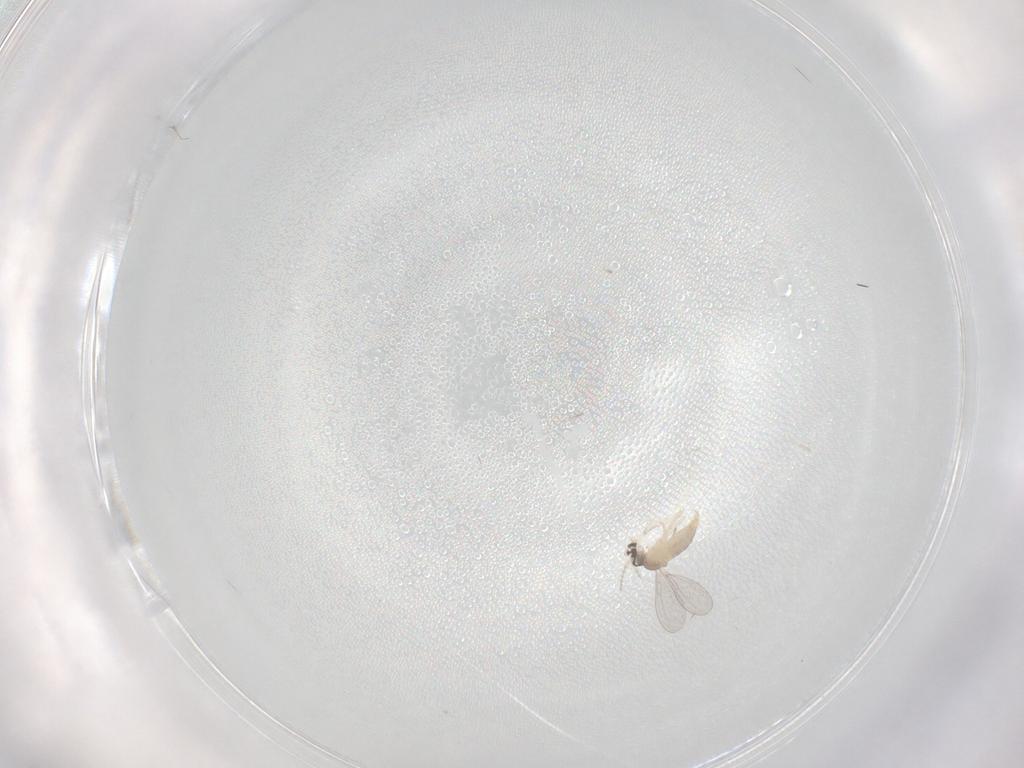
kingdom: Animalia
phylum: Arthropoda
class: Insecta
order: Diptera
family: Cecidomyiidae
